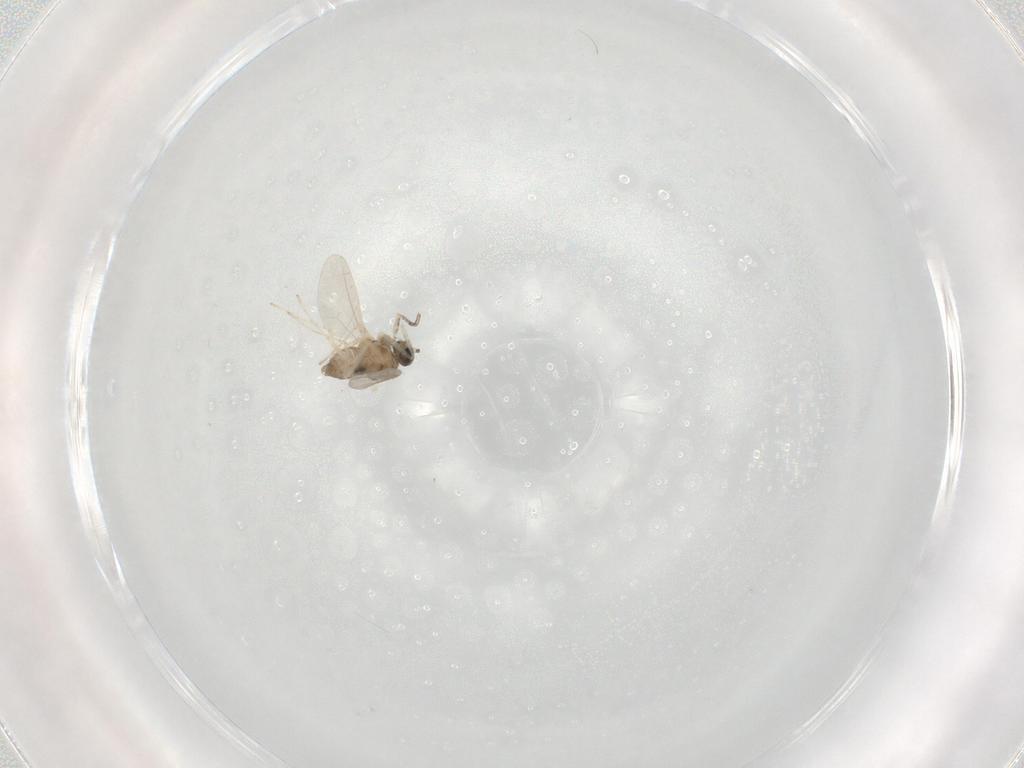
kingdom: Animalia
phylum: Arthropoda
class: Insecta
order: Diptera
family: Cecidomyiidae
